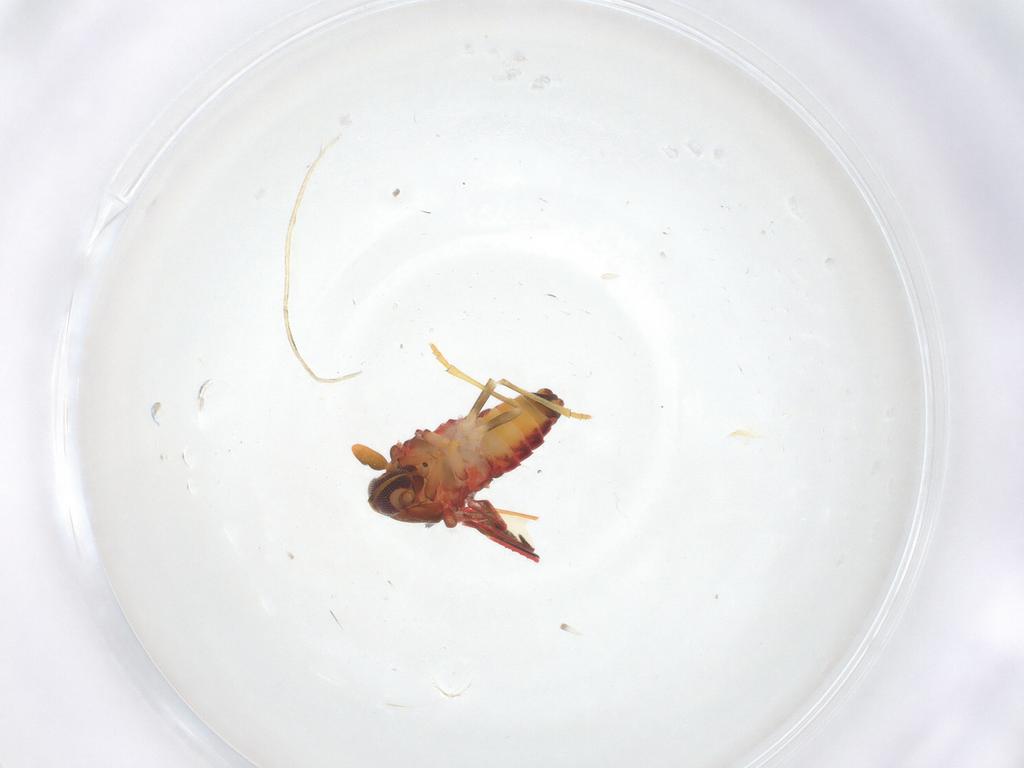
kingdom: Animalia
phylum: Arthropoda
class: Insecta
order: Hemiptera
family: Derbidae
